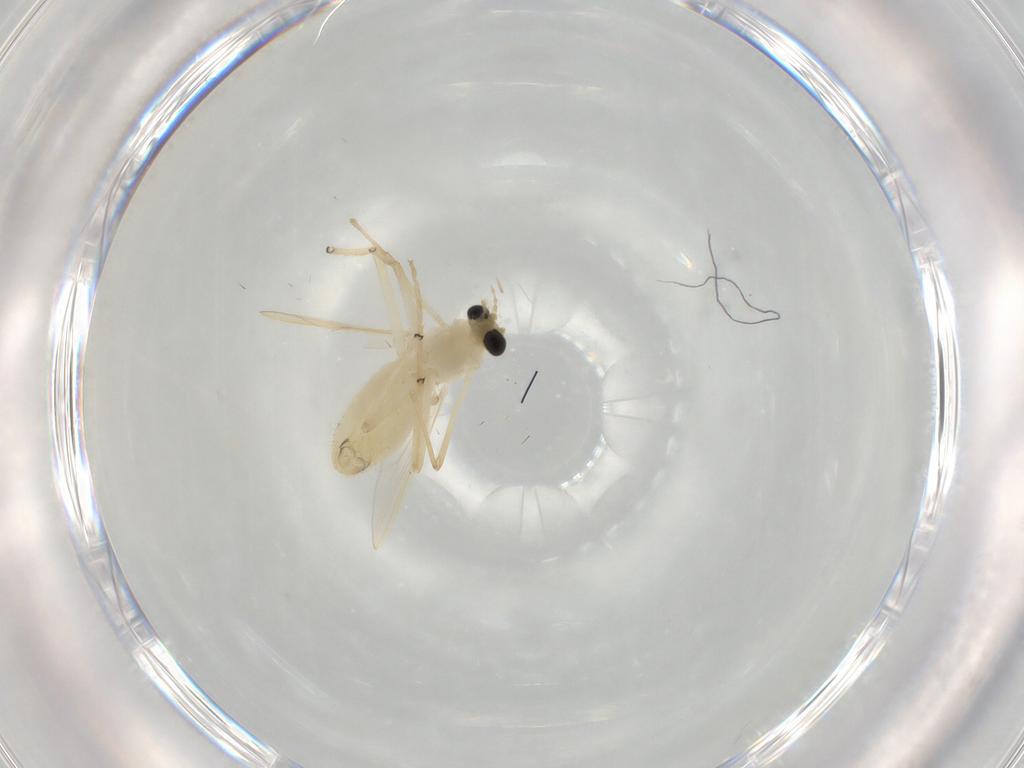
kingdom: Animalia
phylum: Arthropoda
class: Insecta
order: Diptera
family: Chironomidae
